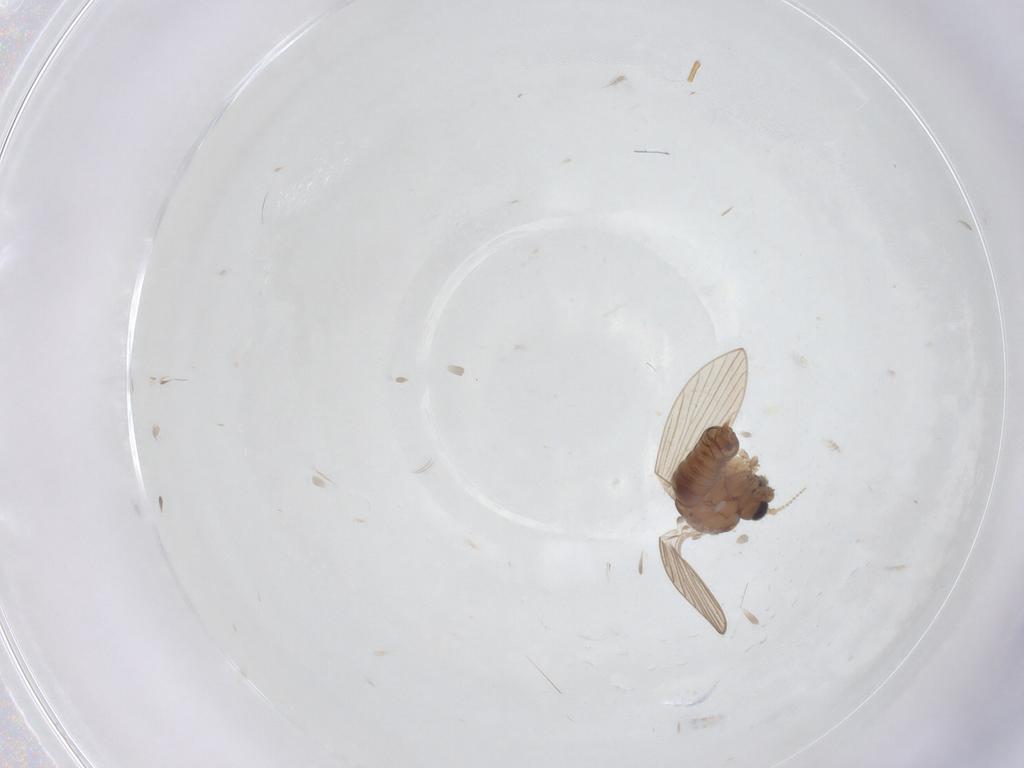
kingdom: Animalia
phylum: Arthropoda
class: Insecta
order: Diptera
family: Psychodidae
